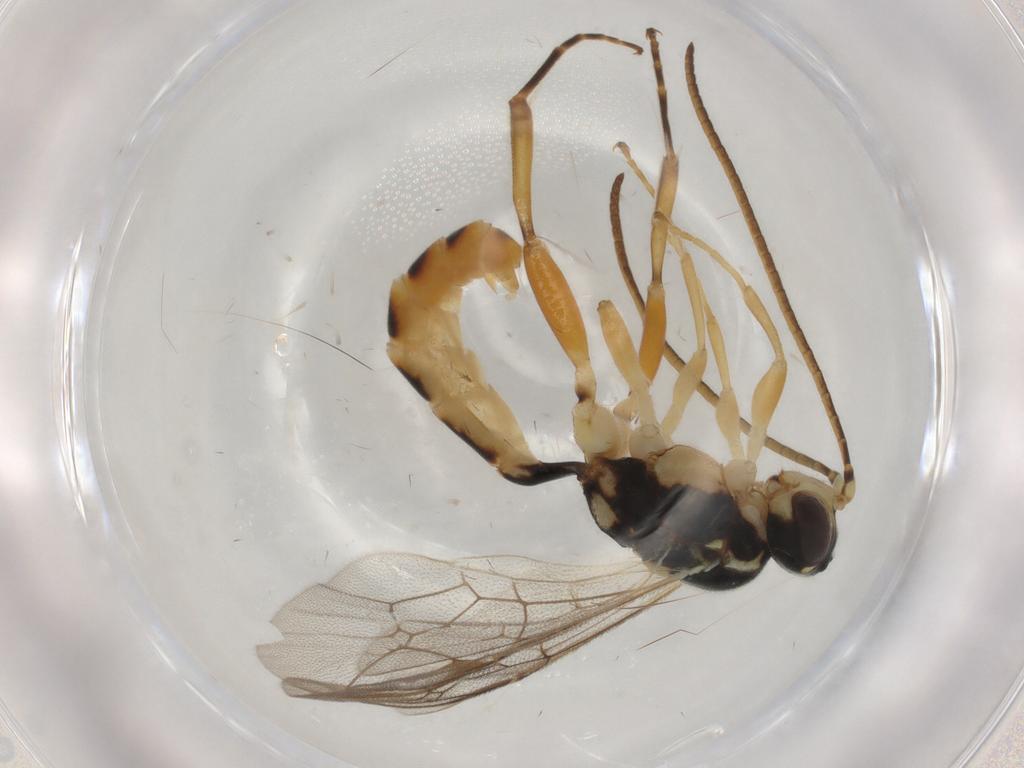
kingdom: Animalia
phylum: Arthropoda
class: Insecta
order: Hymenoptera
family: Ichneumonidae
